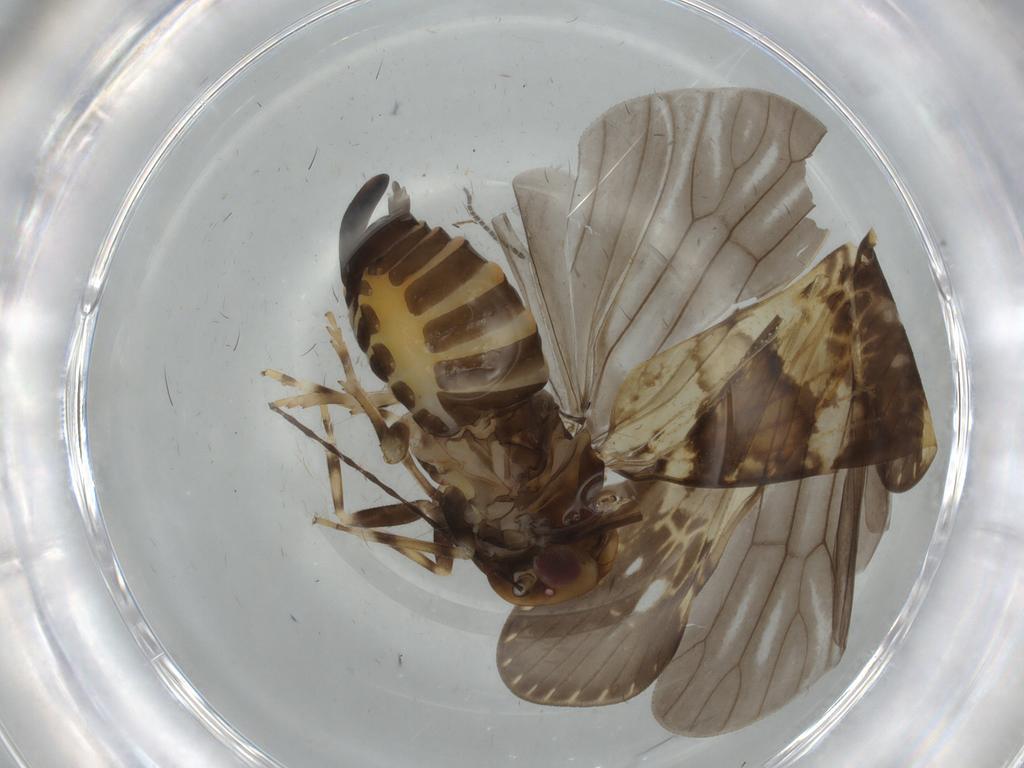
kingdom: Animalia
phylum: Arthropoda
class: Insecta
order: Hemiptera
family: Cixiidae
